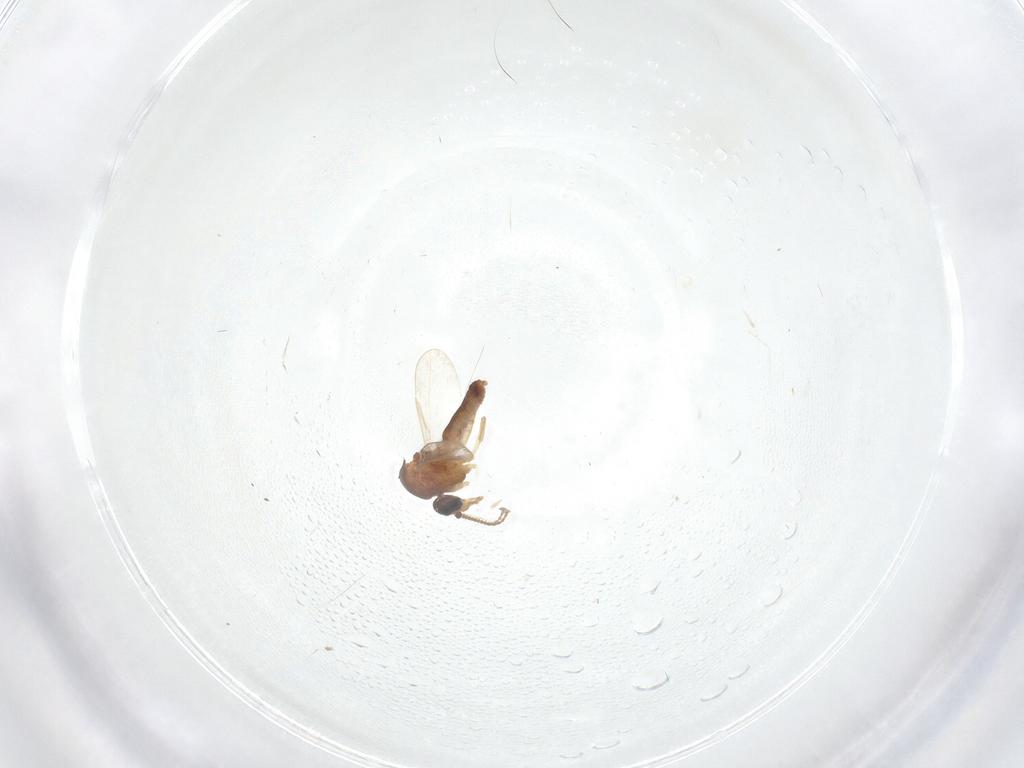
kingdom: Animalia
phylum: Arthropoda
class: Insecta
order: Diptera
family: Ceratopogonidae
